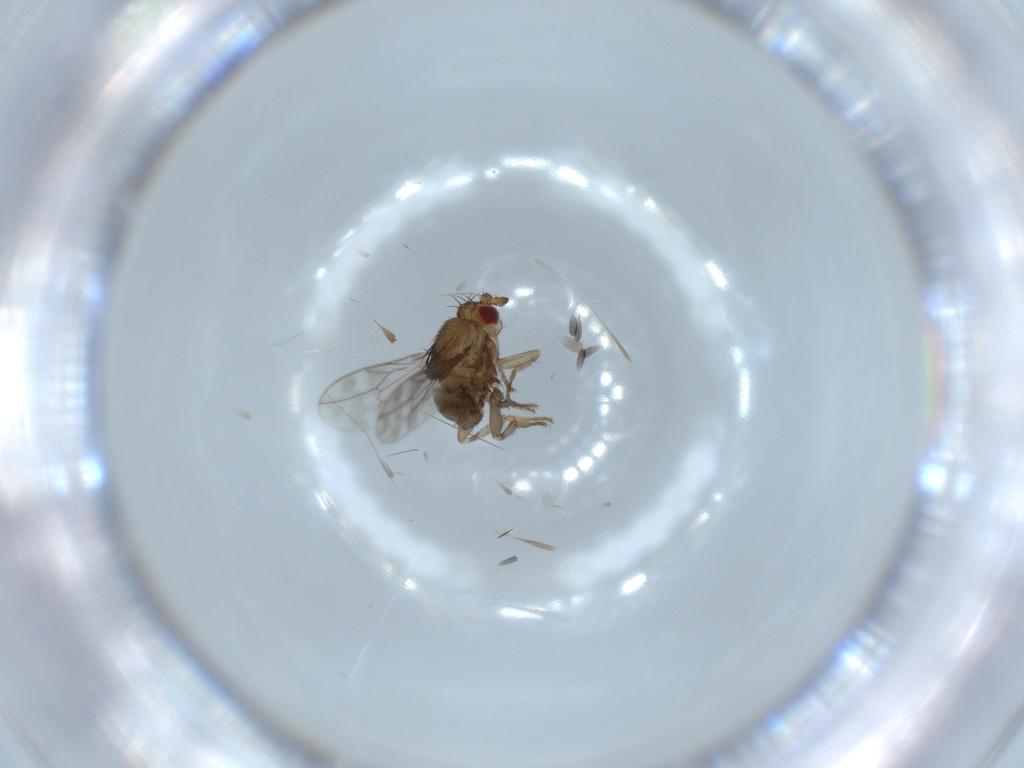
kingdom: Animalia
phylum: Arthropoda
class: Insecta
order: Diptera
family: Sphaeroceridae
